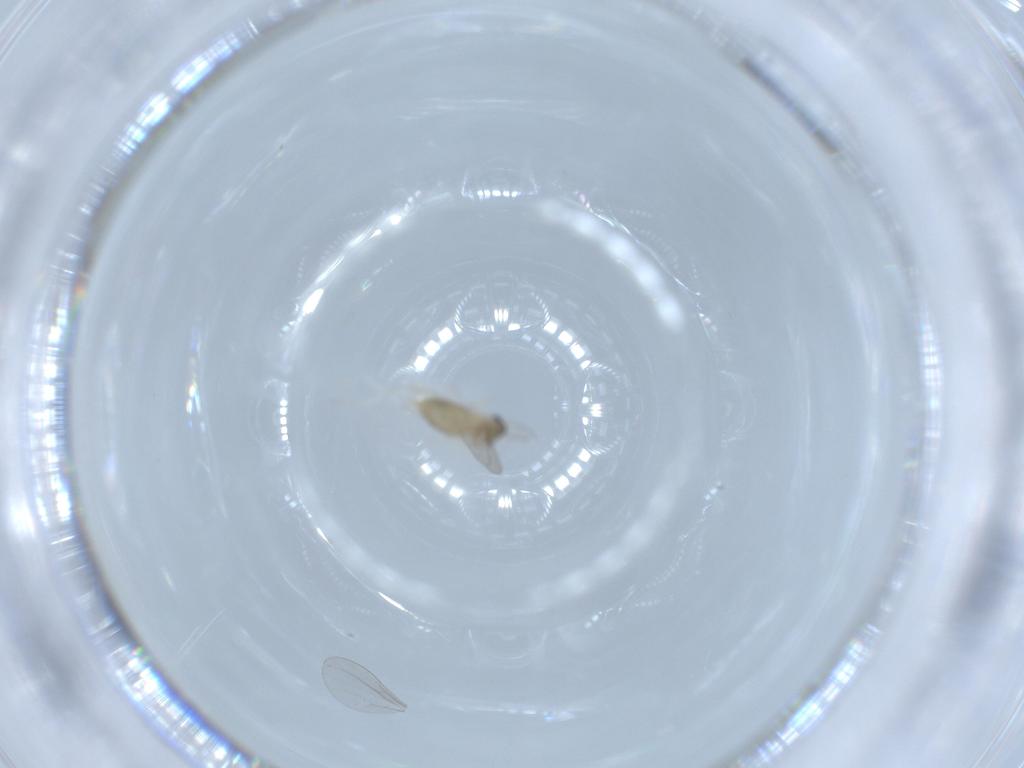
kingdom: Animalia
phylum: Arthropoda
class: Insecta
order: Diptera
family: Cecidomyiidae
